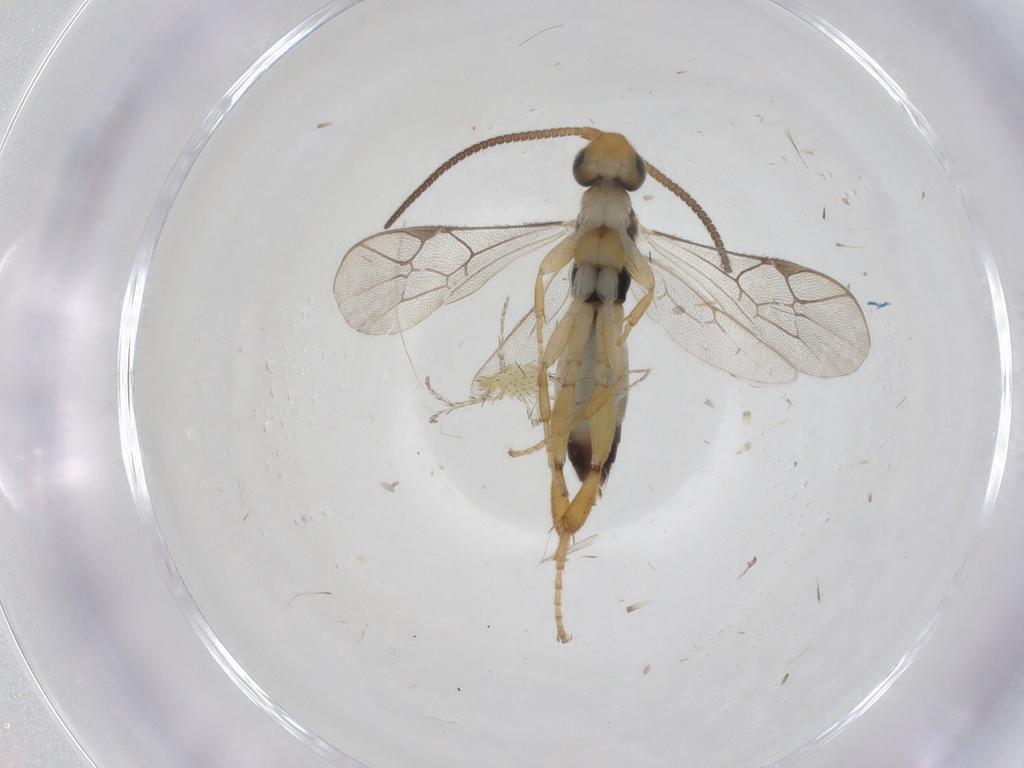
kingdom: Animalia
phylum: Arthropoda
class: Insecta
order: Hymenoptera
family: Ichneumonidae
